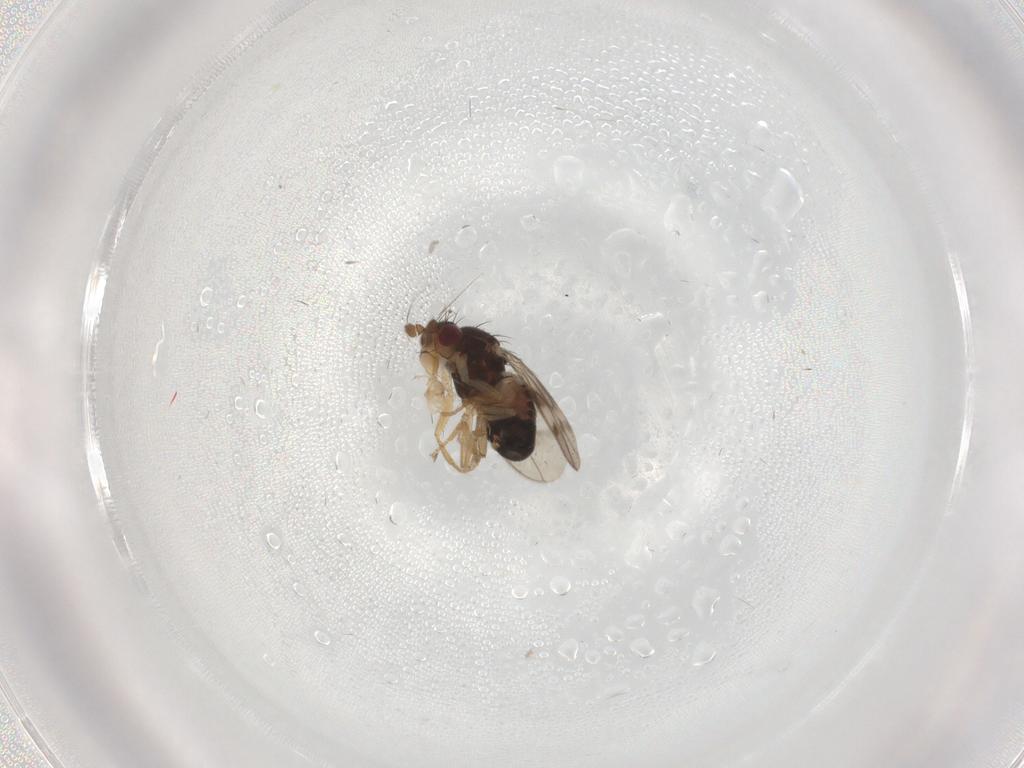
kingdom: Animalia
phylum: Arthropoda
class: Insecta
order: Diptera
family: Sphaeroceridae
